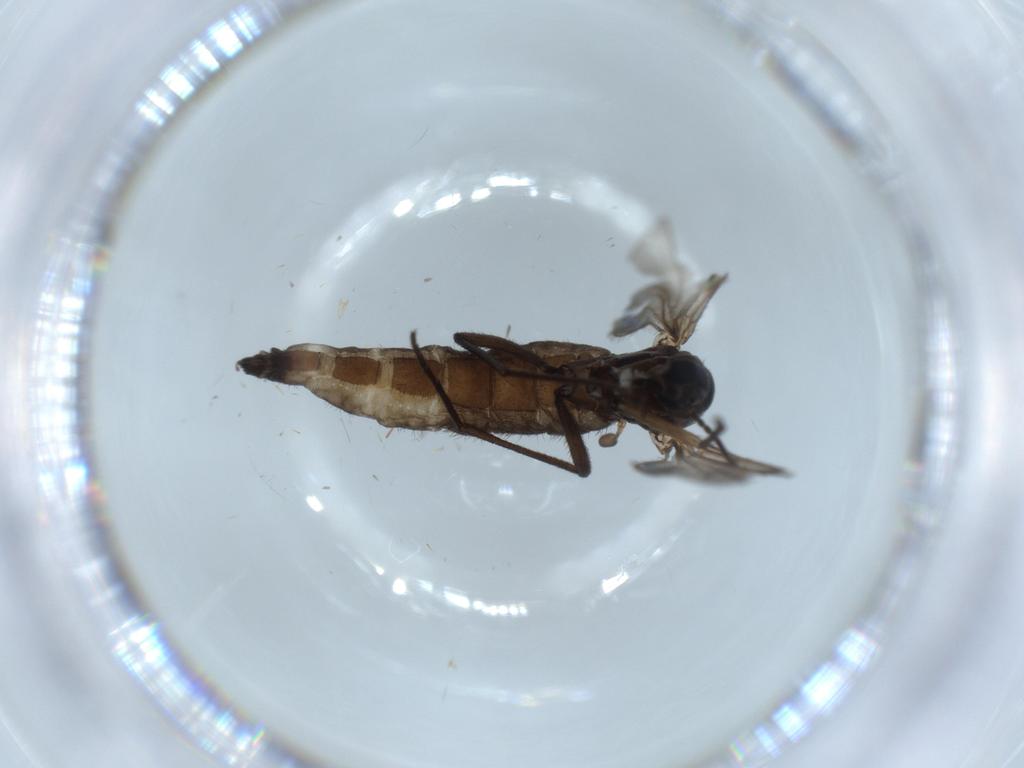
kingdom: Animalia
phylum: Arthropoda
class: Insecta
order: Diptera
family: Sciaridae
